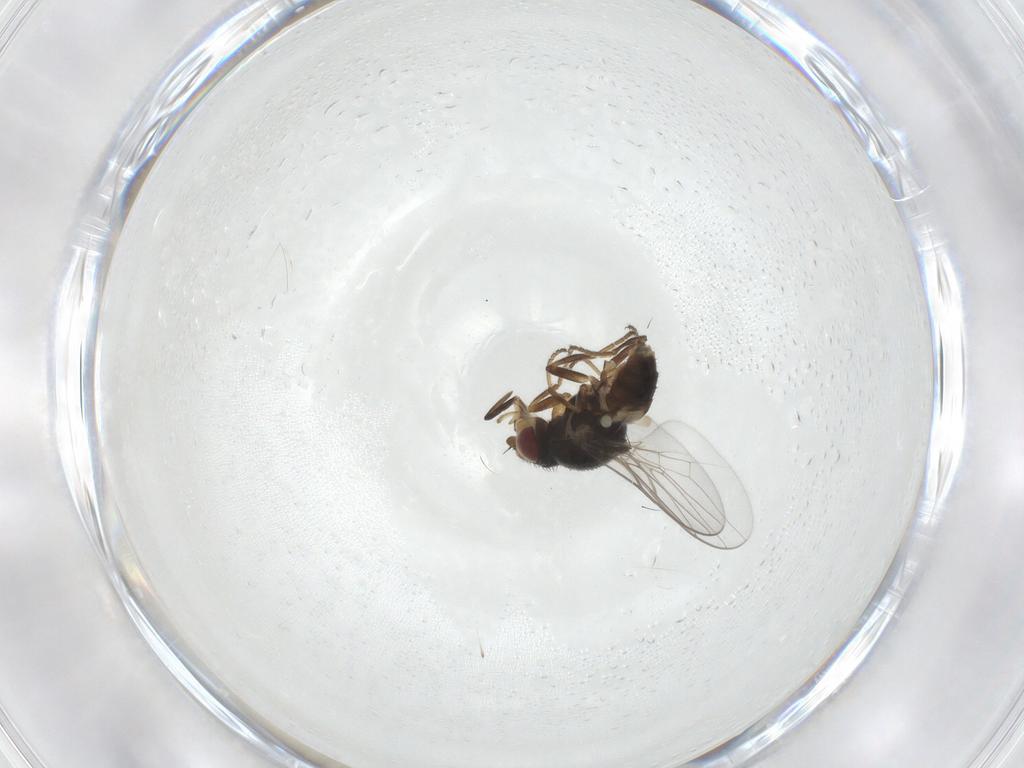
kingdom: Animalia
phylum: Arthropoda
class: Insecta
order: Diptera
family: Chloropidae
